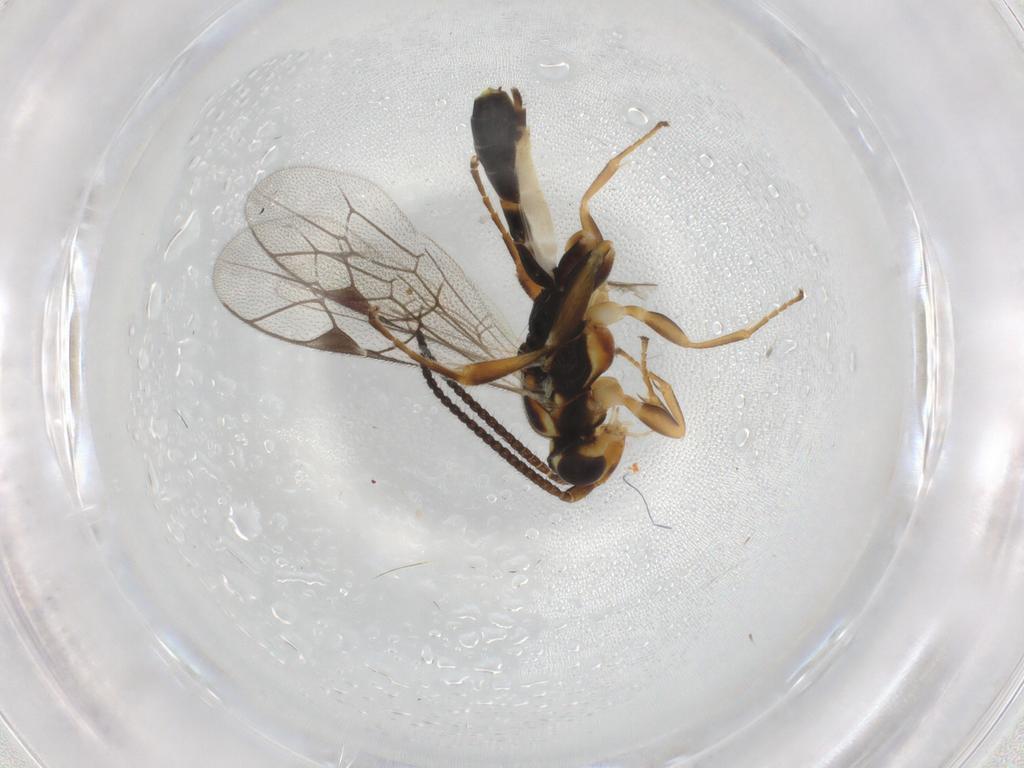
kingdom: Animalia
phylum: Arthropoda
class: Insecta
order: Hymenoptera
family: Ichneumonidae
